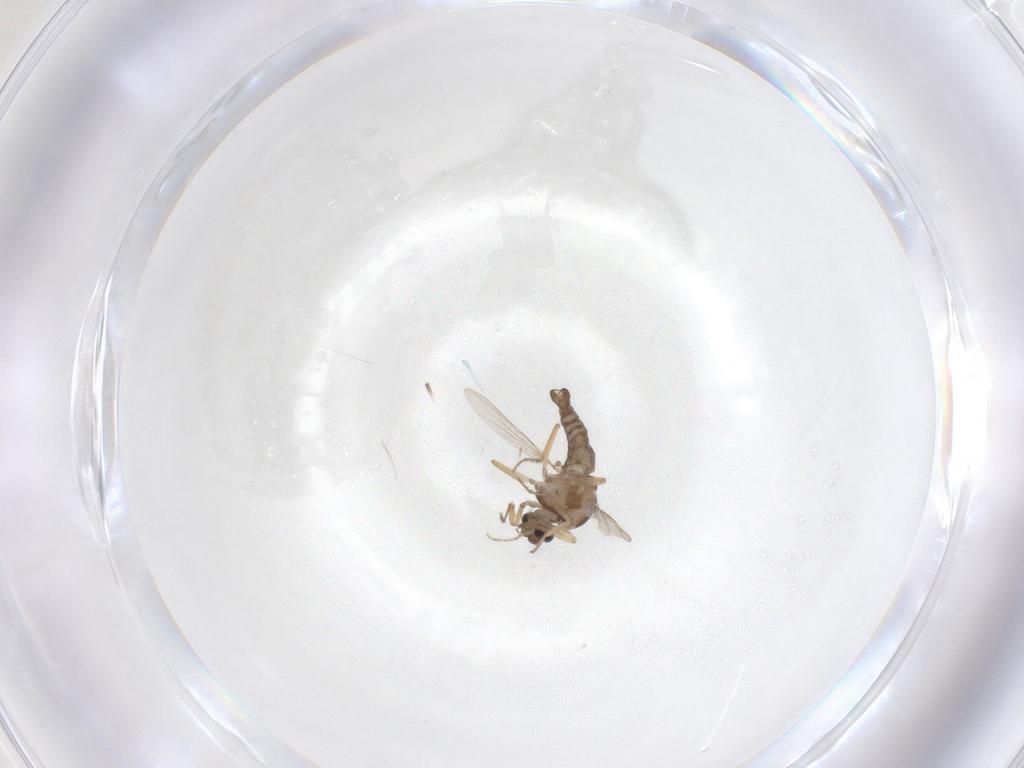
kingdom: Animalia
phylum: Arthropoda
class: Insecta
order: Diptera
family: Ceratopogonidae
